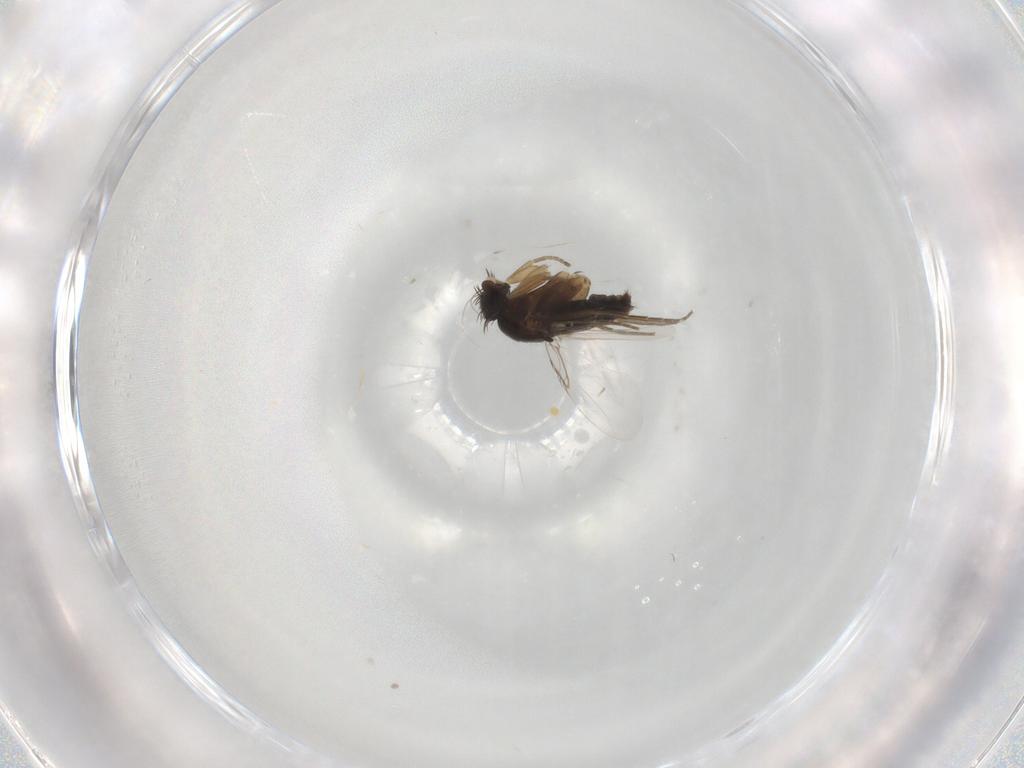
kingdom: Animalia
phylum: Arthropoda
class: Insecta
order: Diptera
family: Phoridae
